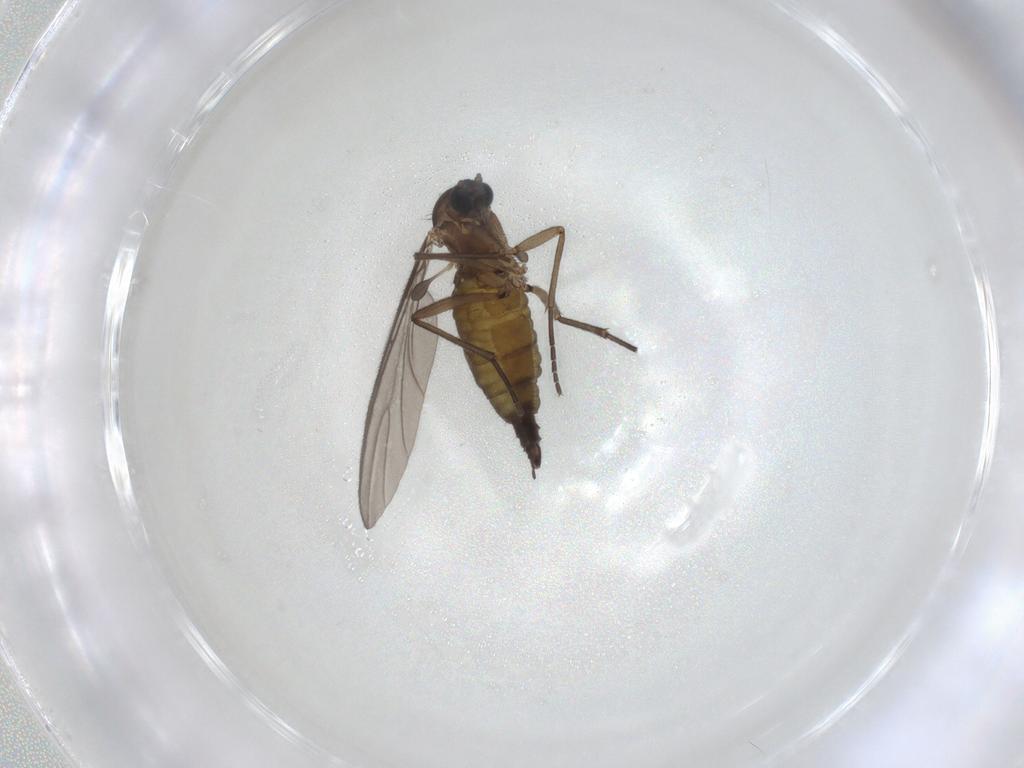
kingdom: Animalia
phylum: Arthropoda
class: Insecta
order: Diptera
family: Sciaridae
